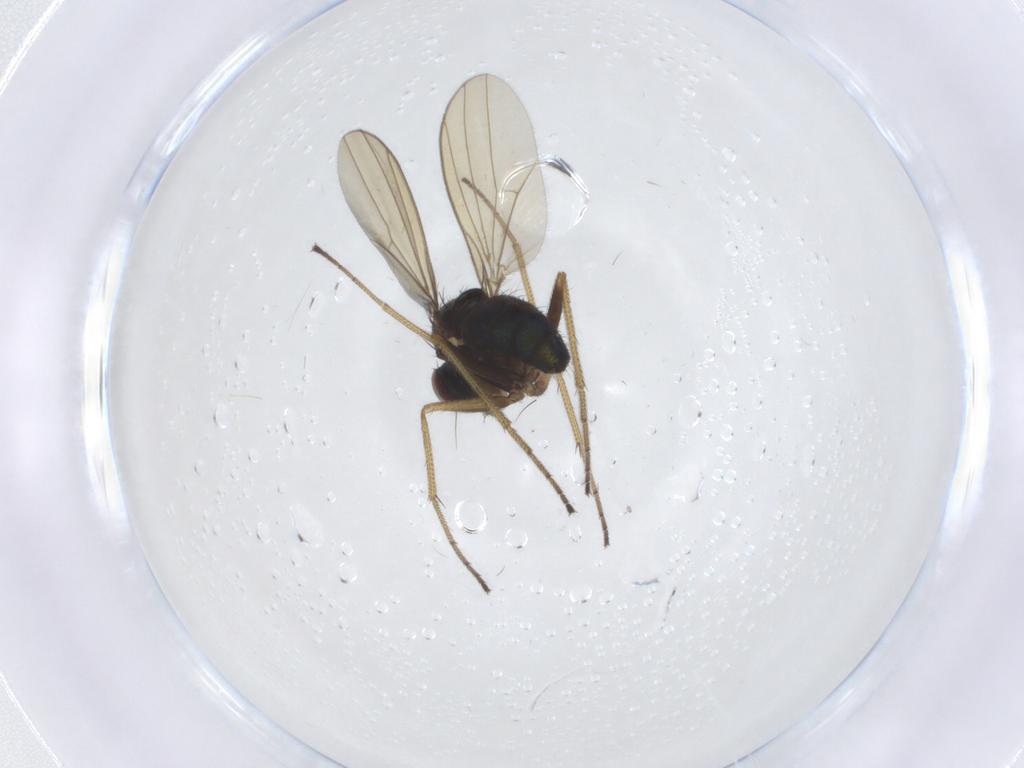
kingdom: Animalia
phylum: Arthropoda
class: Insecta
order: Diptera
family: Dolichopodidae
